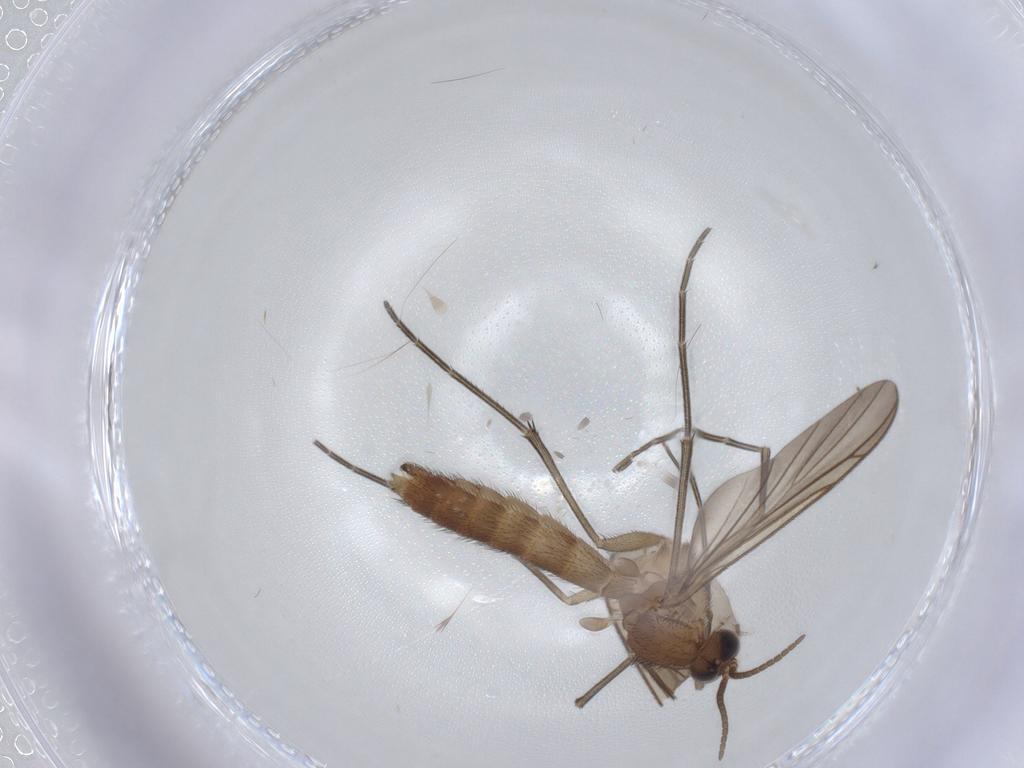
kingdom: Animalia
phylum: Arthropoda
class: Insecta
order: Diptera
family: Keroplatidae
